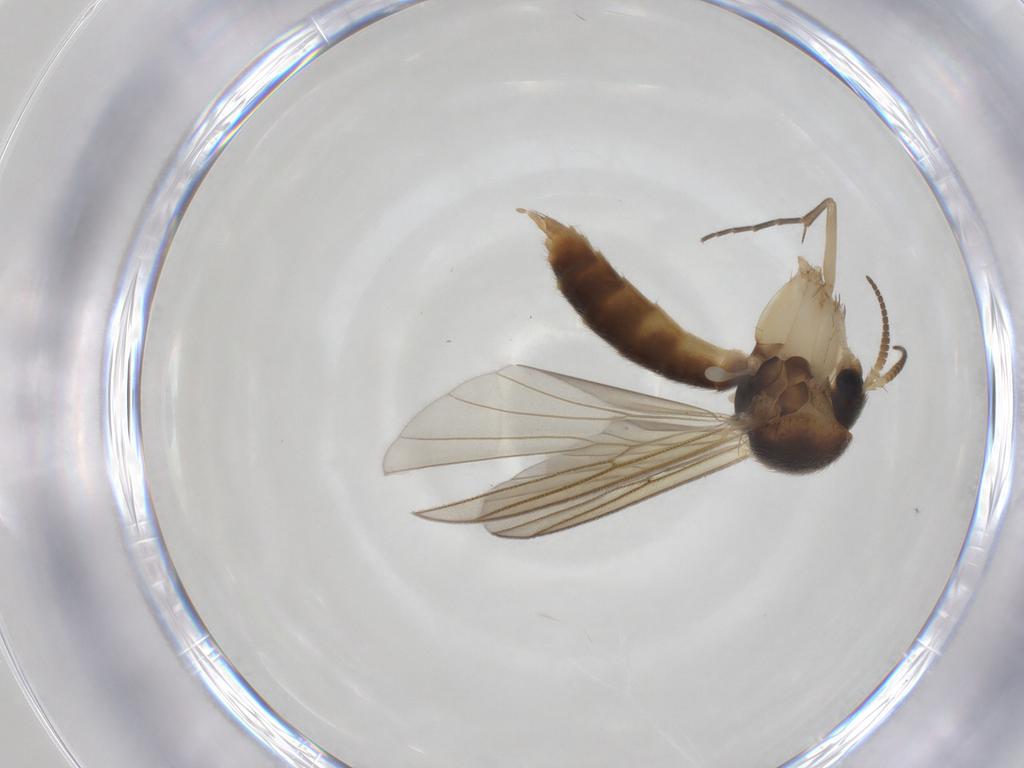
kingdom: Animalia
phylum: Arthropoda
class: Insecta
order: Diptera
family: Mycetophilidae
